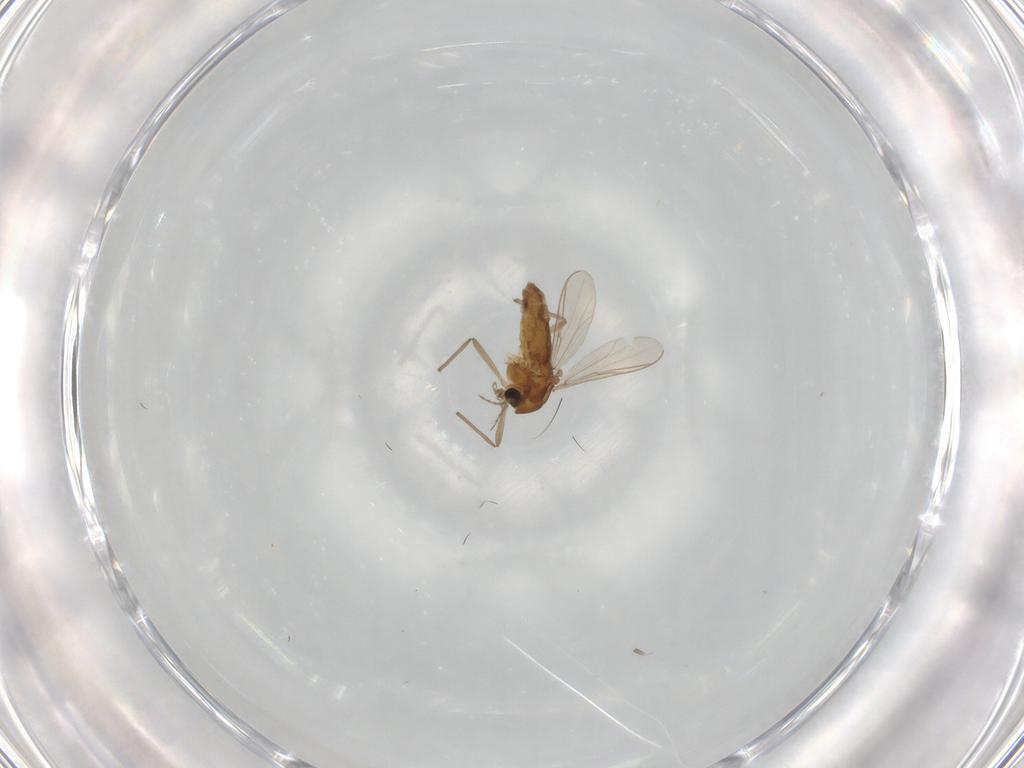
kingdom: Animalia
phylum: Arthropoda
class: Insecta
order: Diptera
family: Chironomidae
